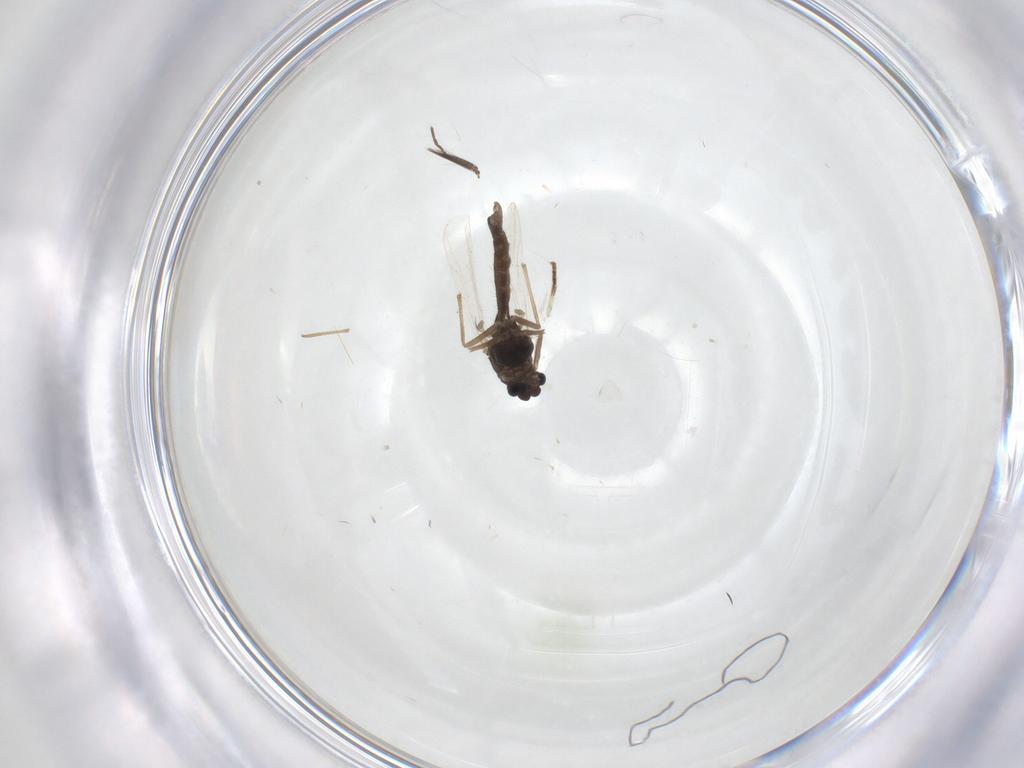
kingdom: Animalia
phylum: Arthropoda
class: Insecta
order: Diptera
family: Ceratopogonidae
